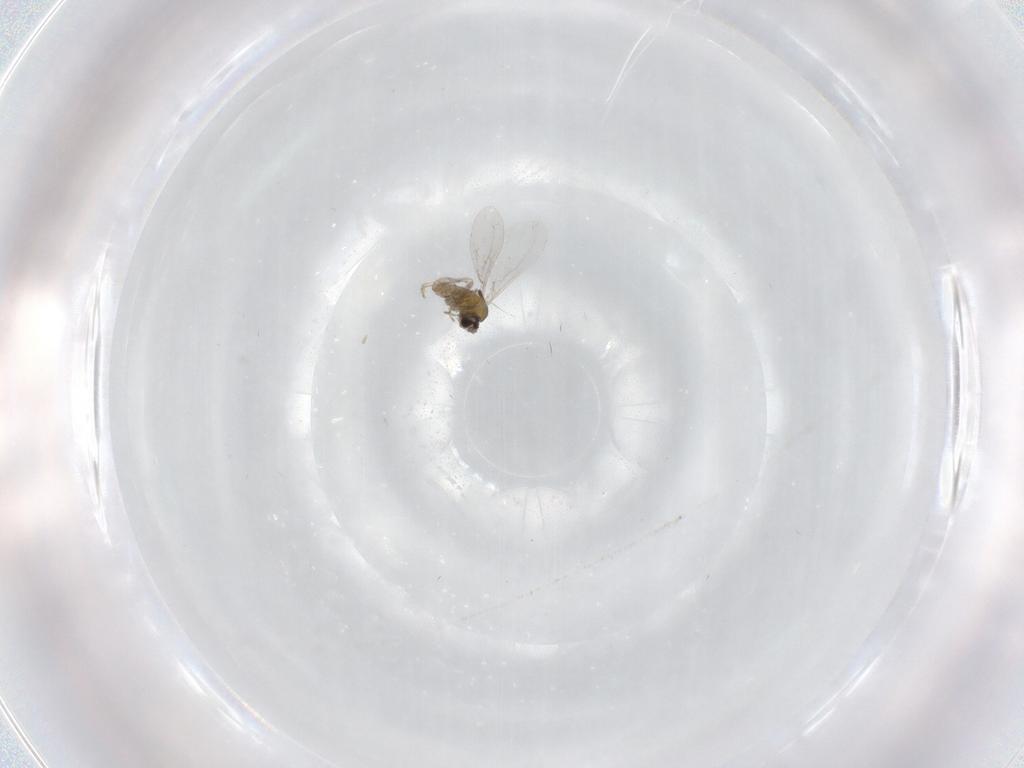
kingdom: Animalia
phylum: Arthropoda
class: Insecta
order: Diptera
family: Cecidomyiidae
